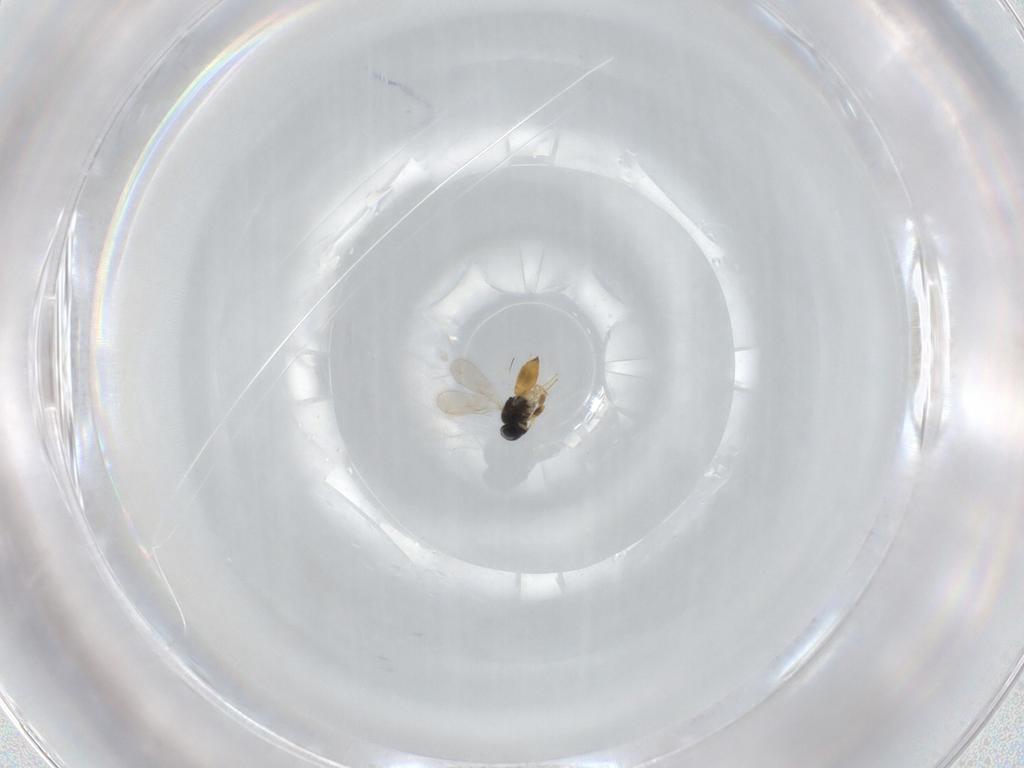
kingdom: Animalia
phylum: Arthropoda
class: Insecta
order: Hymenoptera
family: Scelionidae
